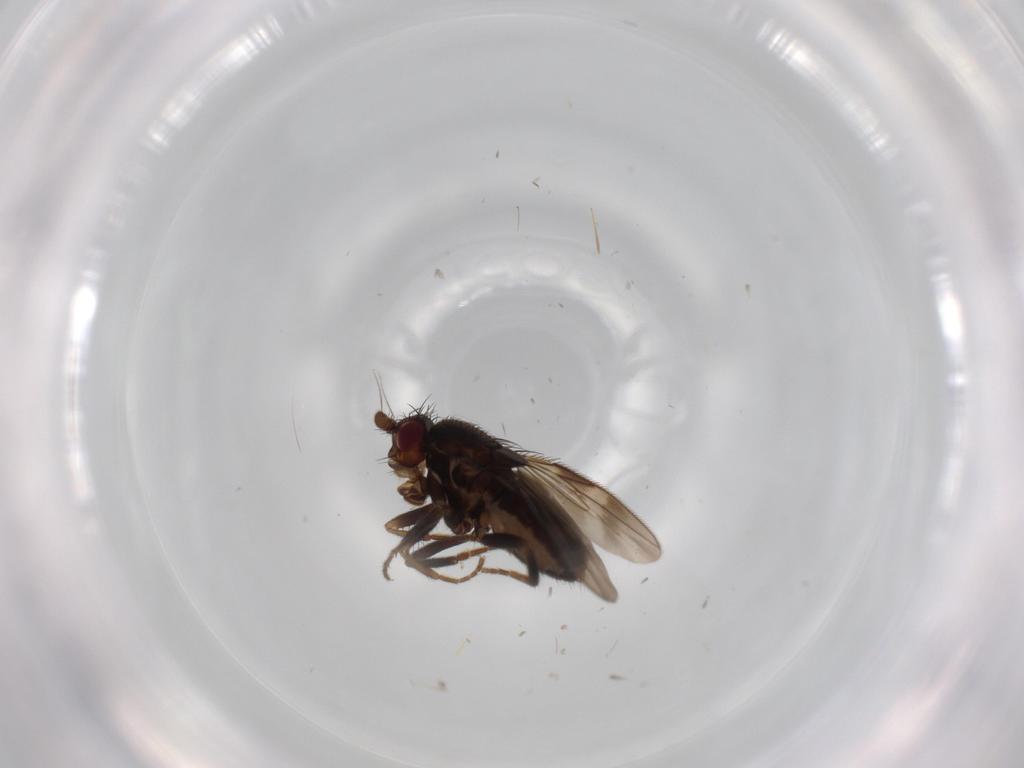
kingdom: Animalia
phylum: Arthropoda
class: Insecta
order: Diptera
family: Sphaeroceridae
